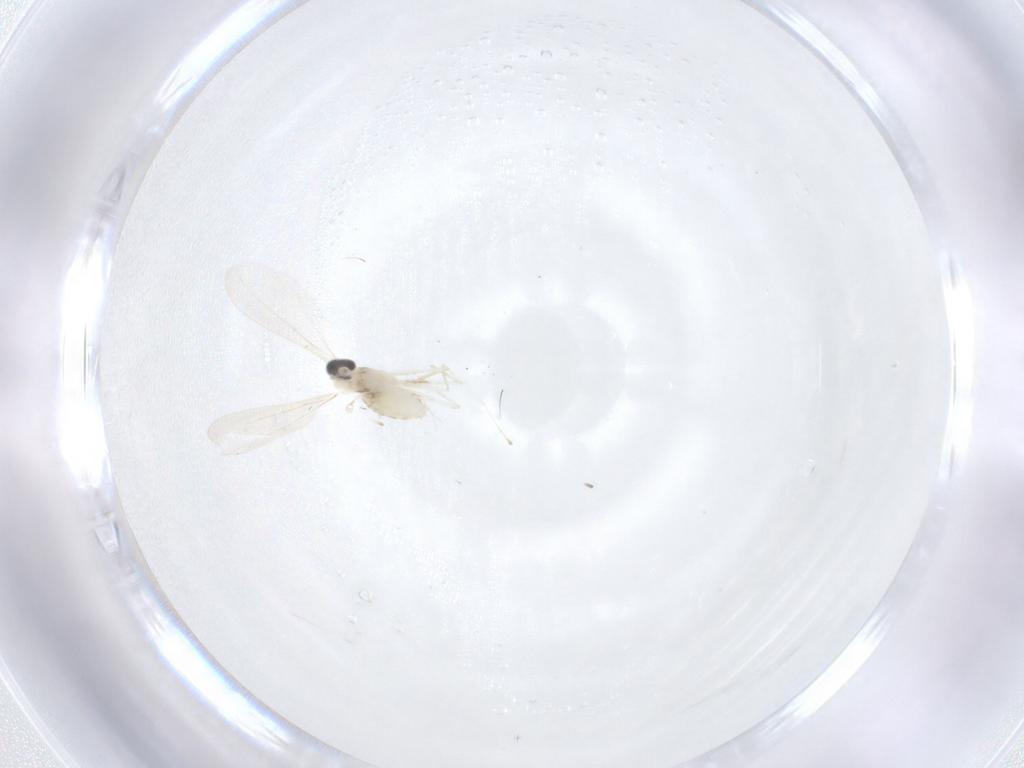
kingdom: Animalia
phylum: Arthropoda
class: Insecta
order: Diptera
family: Cecidomyiidae
